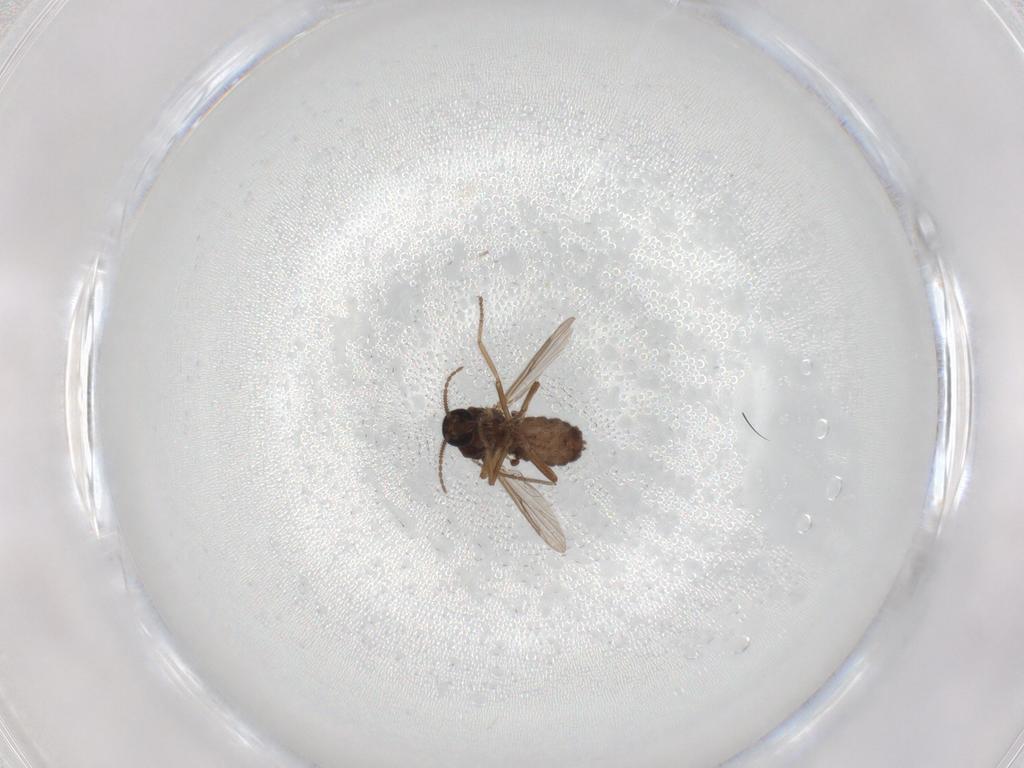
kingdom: Animalia
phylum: Arthropoda
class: Insecta
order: Diptera
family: Ceratopogonidae
